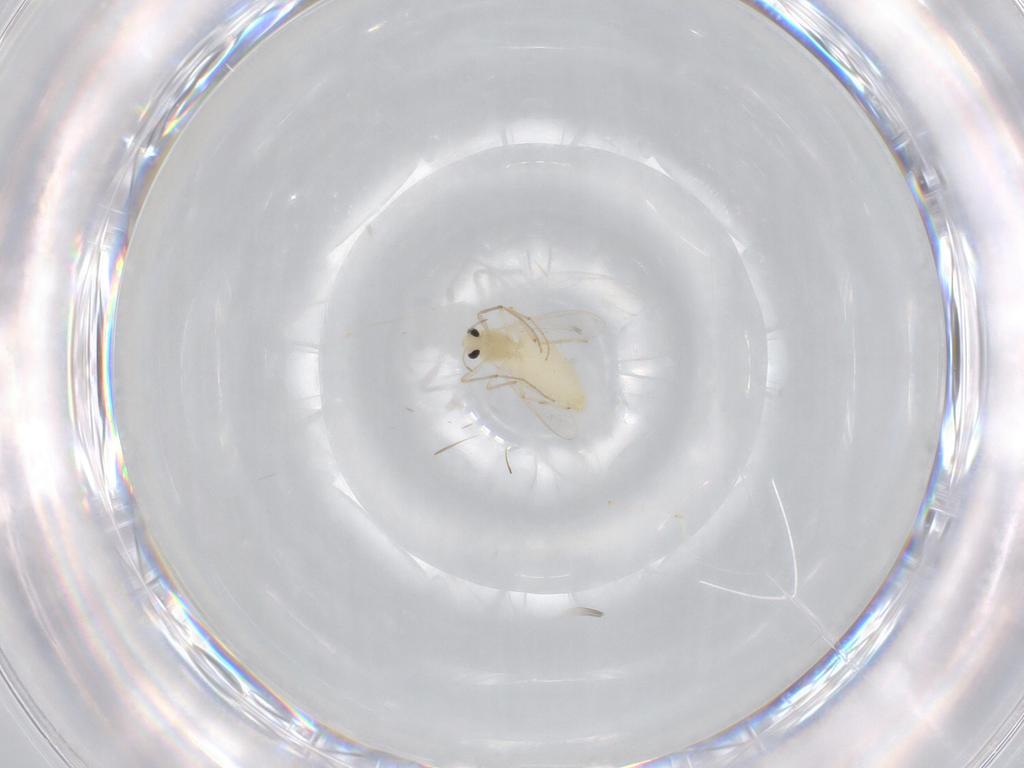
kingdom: Animalia
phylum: Arthropoda
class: Insecta
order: Diptera
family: Chironomidae
